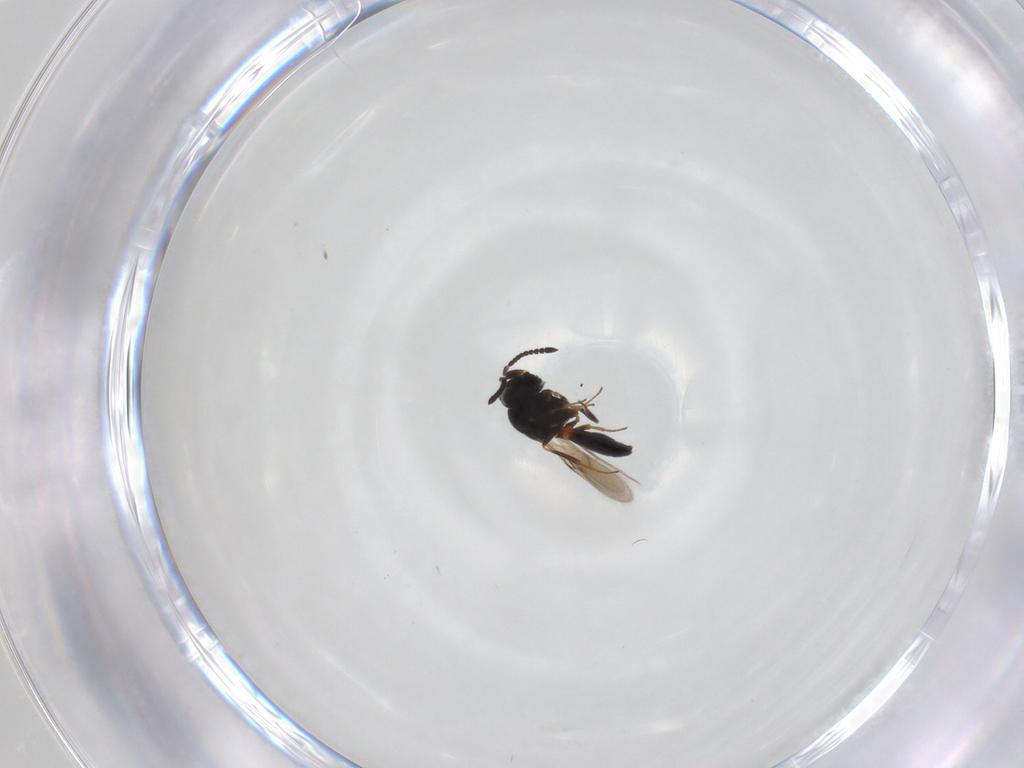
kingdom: Animalia
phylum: Arthropoda
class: Insecta
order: Hymenoptera
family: Scelionidae
